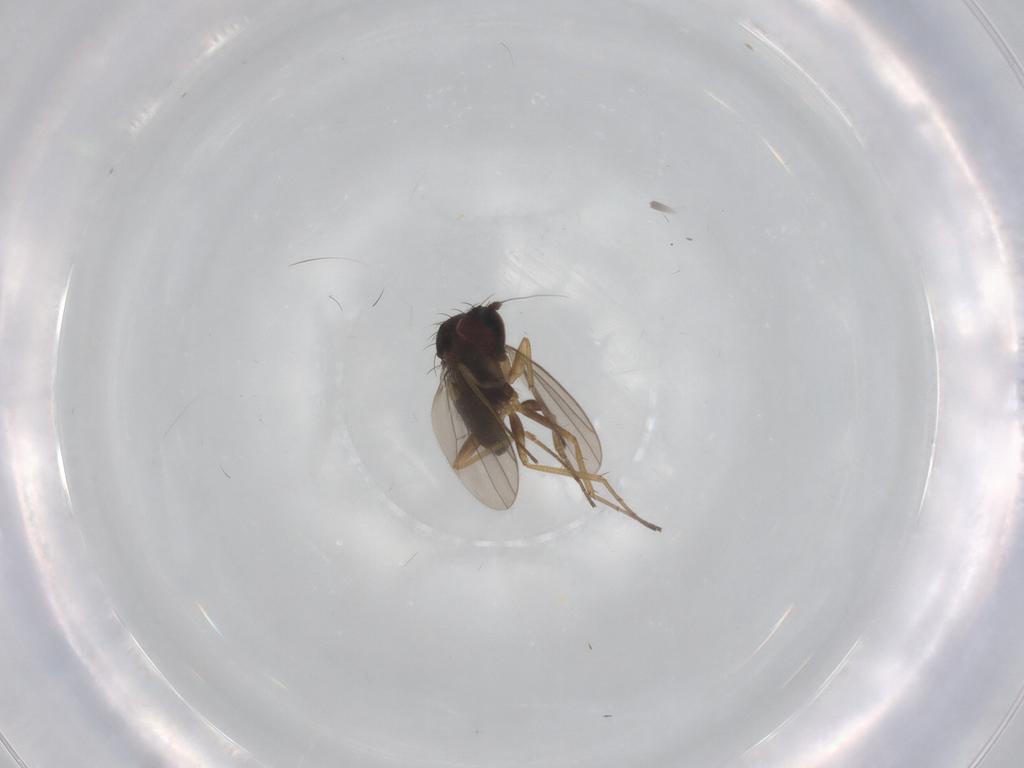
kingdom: Animalia
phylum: Arthropoda
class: Insecta
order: Diptera
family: Dolichopodidae
